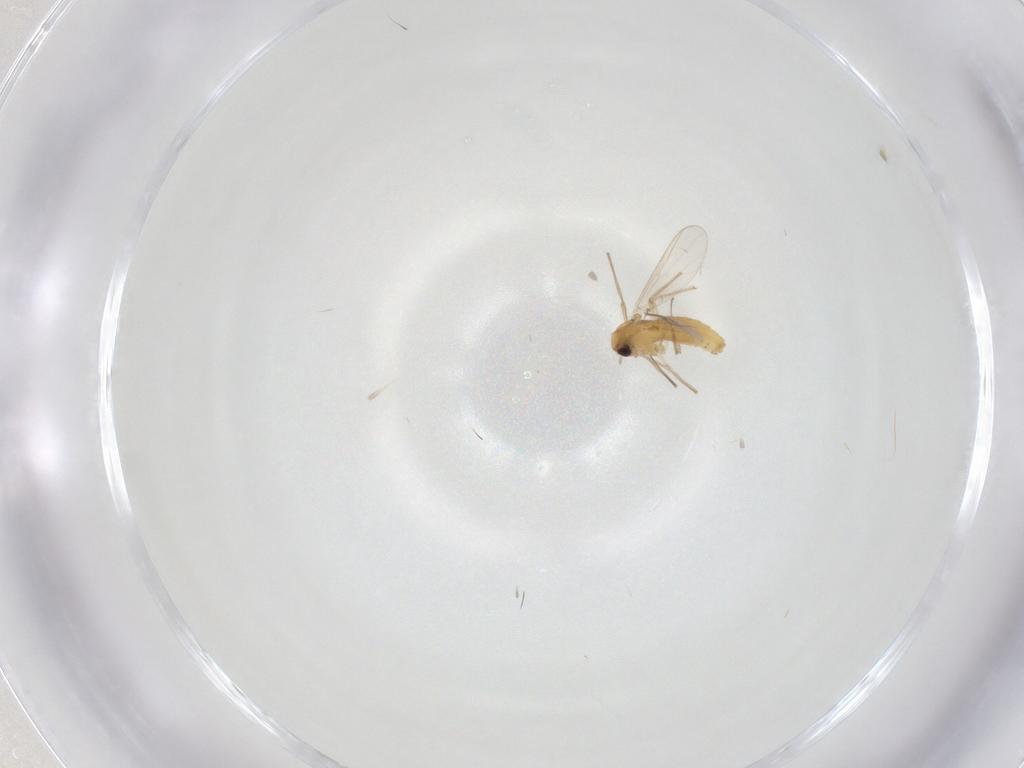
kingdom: Animalia
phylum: Arthropoda
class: Insecta
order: Diptera
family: Chironomidae
